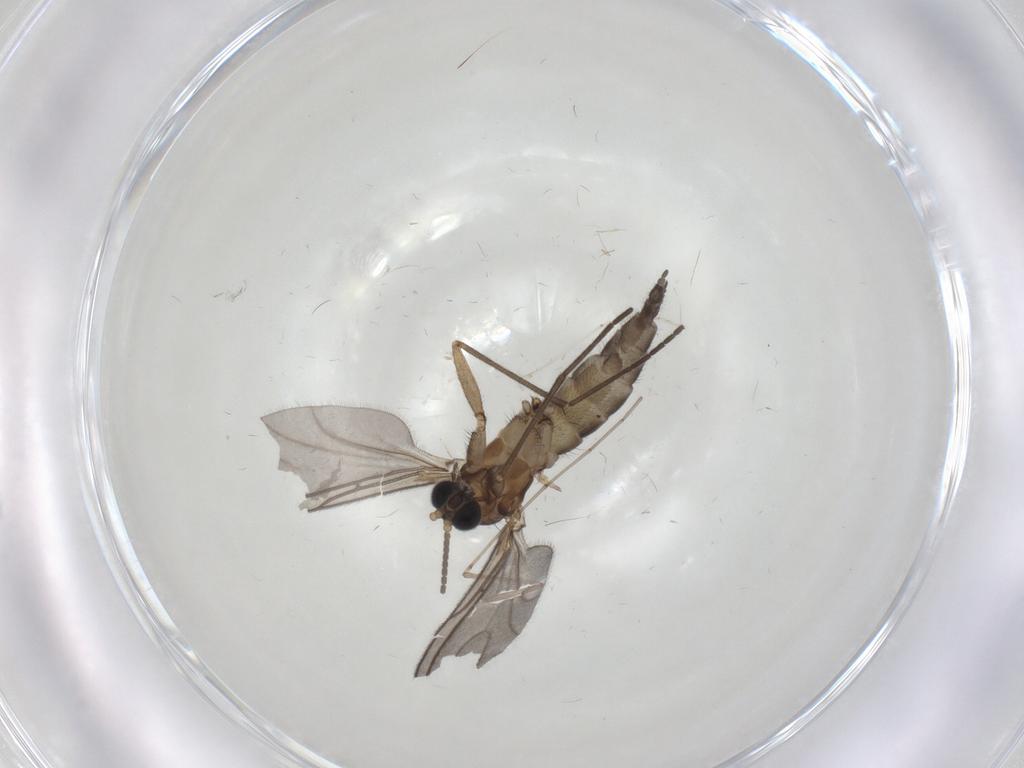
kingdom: Animalia
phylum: Arthropoda
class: Insecta
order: Diptera
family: Sciaridae
